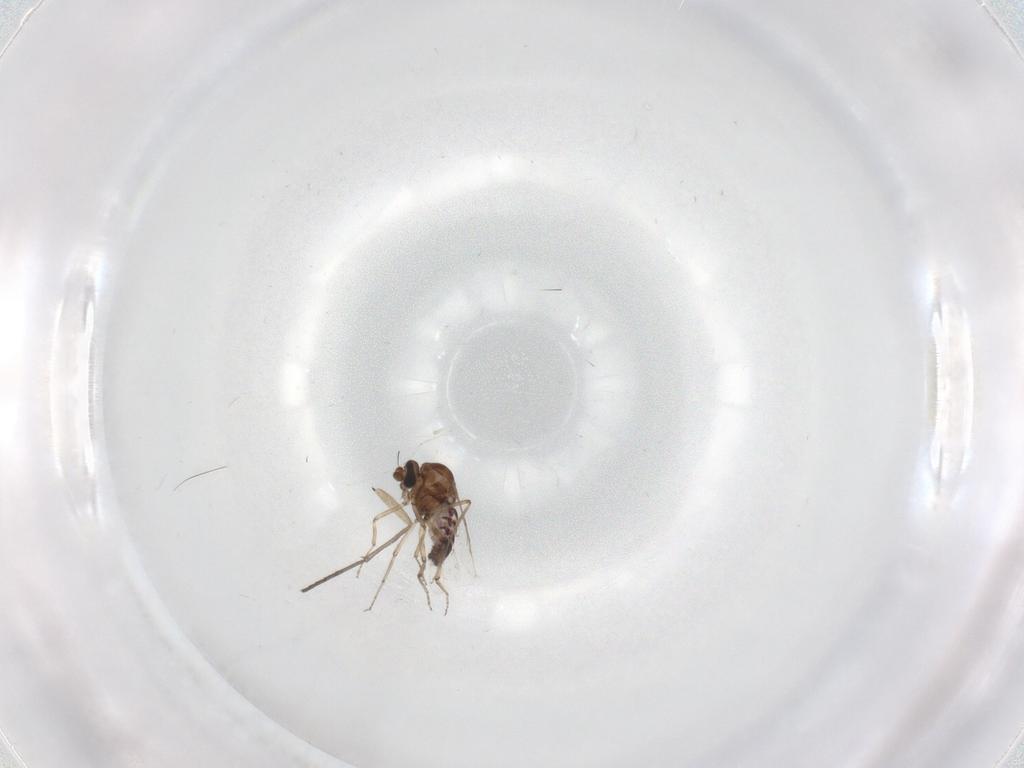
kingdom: Animalia
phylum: Arthropoda
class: Insecta
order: Diptera
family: Ceratopogonidae
